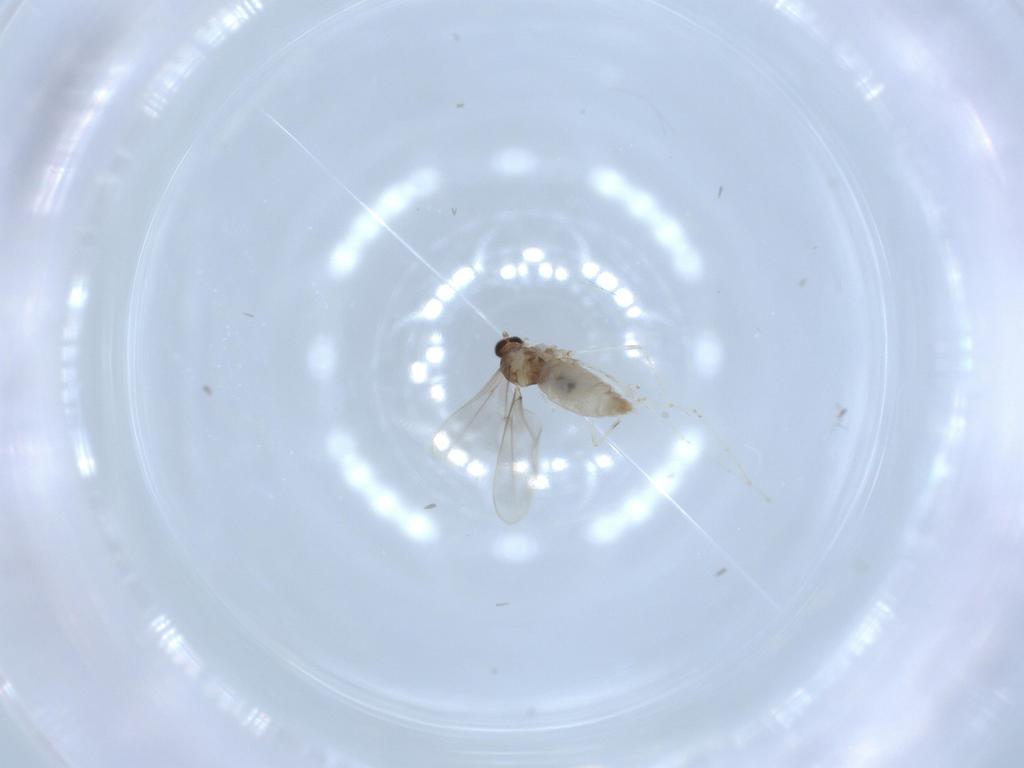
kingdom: Animalia
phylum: Arthropoda
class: Insecta
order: Diptera
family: Cecidomyiidae
